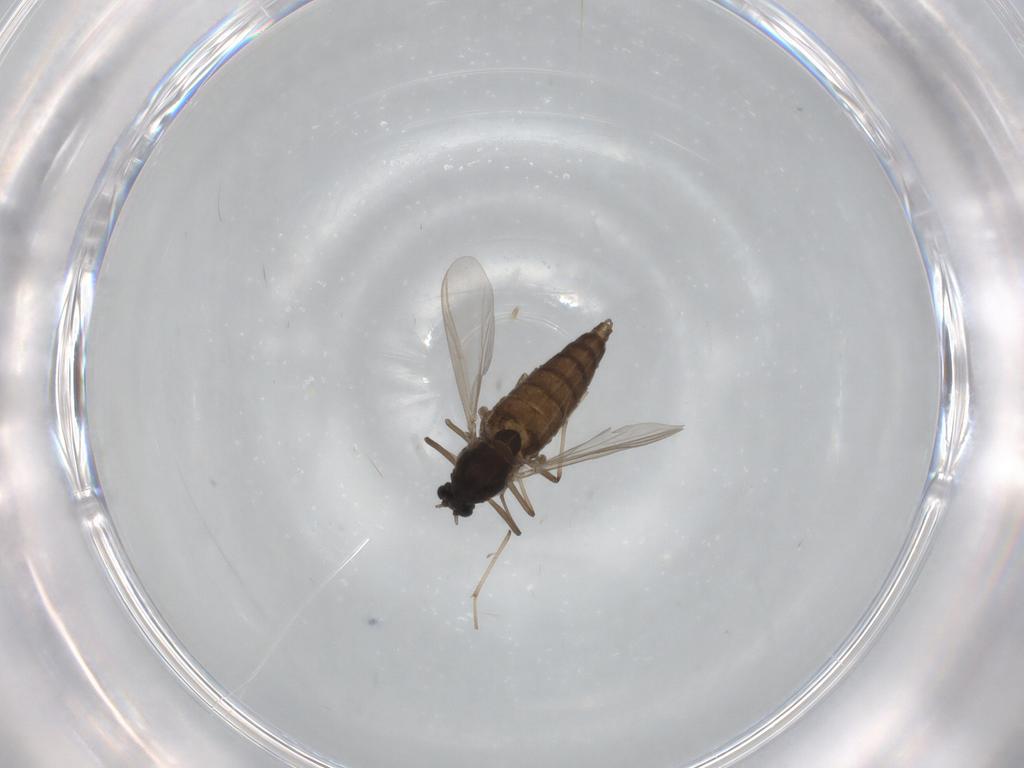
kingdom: Animalia
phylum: Arthropoda
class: Insecta
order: Diptera
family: Chironomidae
